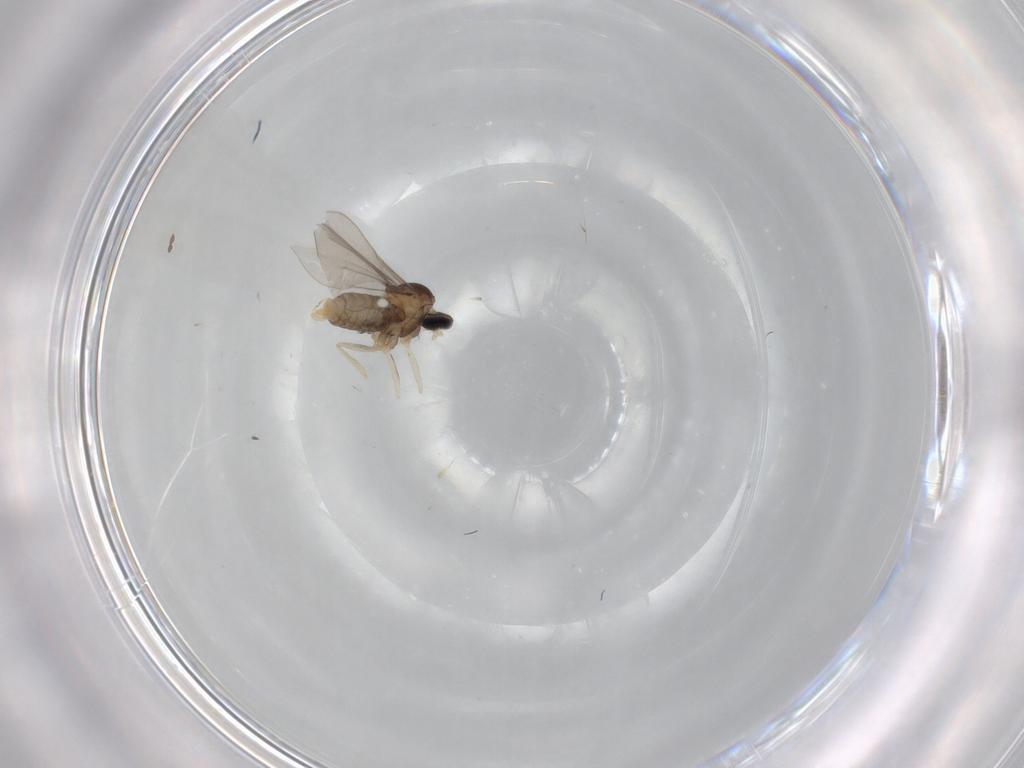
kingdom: Animalia
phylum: Arthropoda
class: Insecta
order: Diptera
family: Cecidomyiidae
